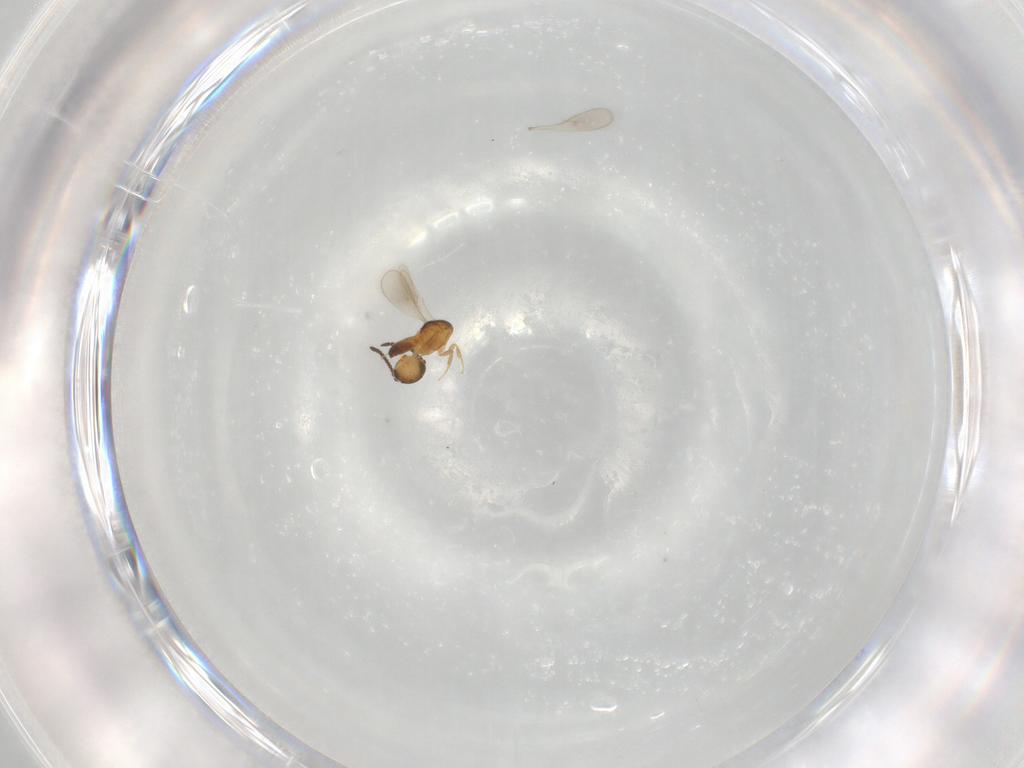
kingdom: Animalia
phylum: Arthropoda
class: Insecta
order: Hymenoptera
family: Scelionidae
